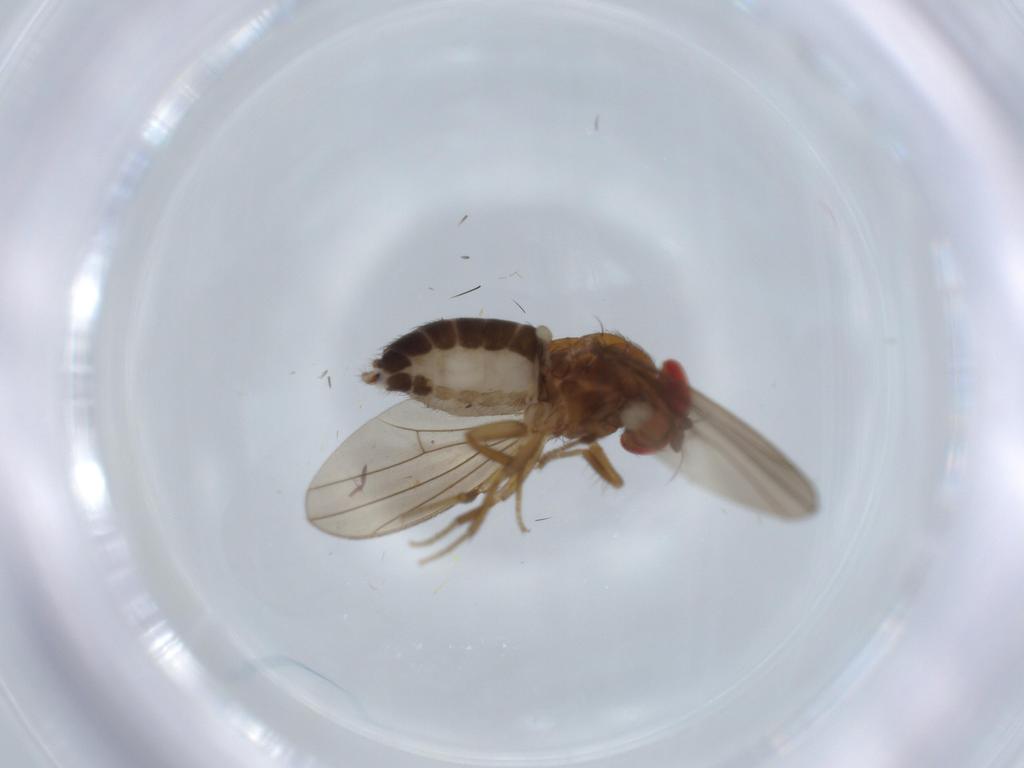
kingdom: Animalia
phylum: Arthropoda
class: Insecta
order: Diptera
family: Drosophilidae
